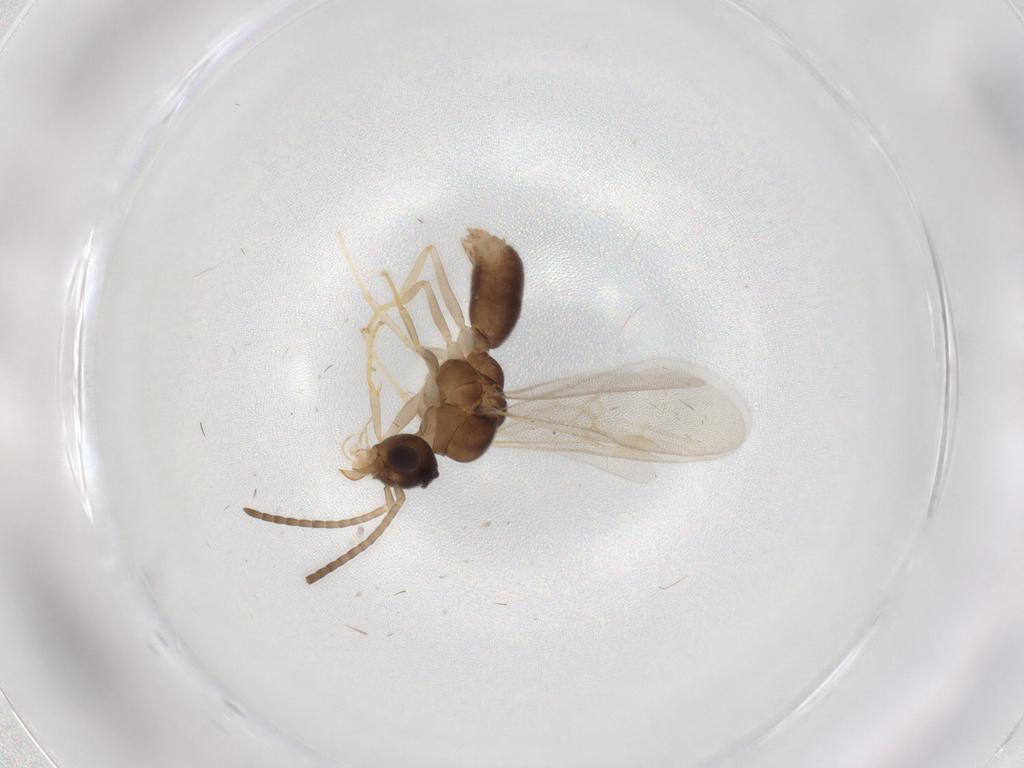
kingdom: Animalia
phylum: Arthropoda
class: Insecta
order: Hymenoptera
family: Formicidae
